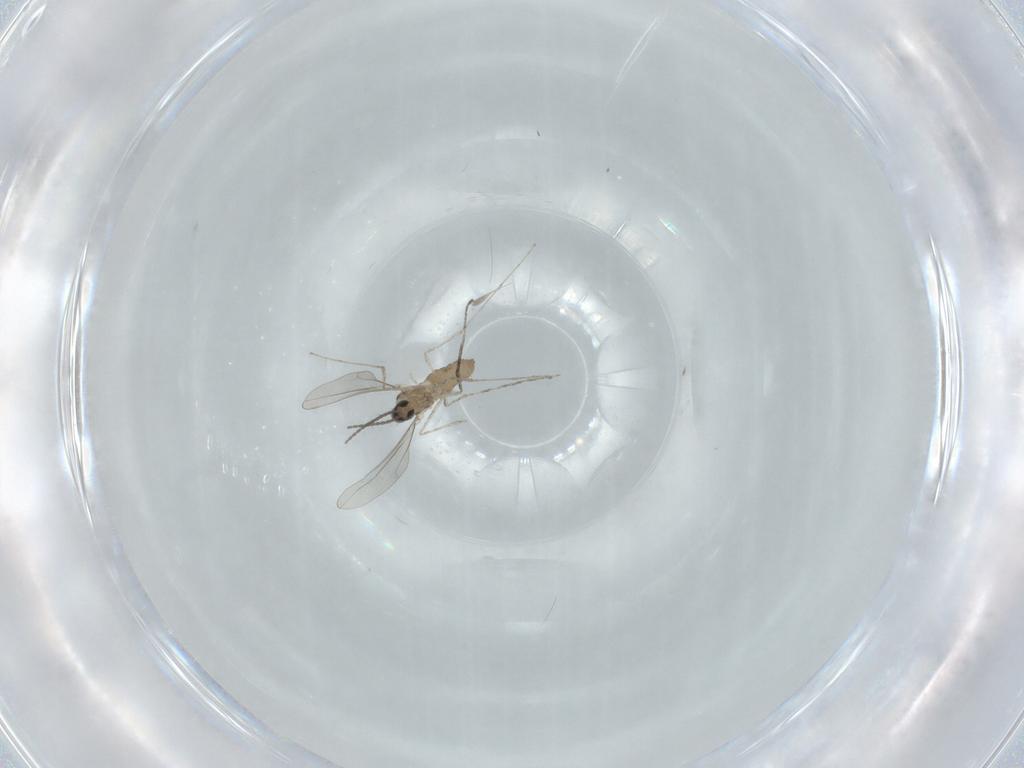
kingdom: Animalia
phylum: Arthropoda
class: Insecta
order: Diptera
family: Cecidomyiidae
